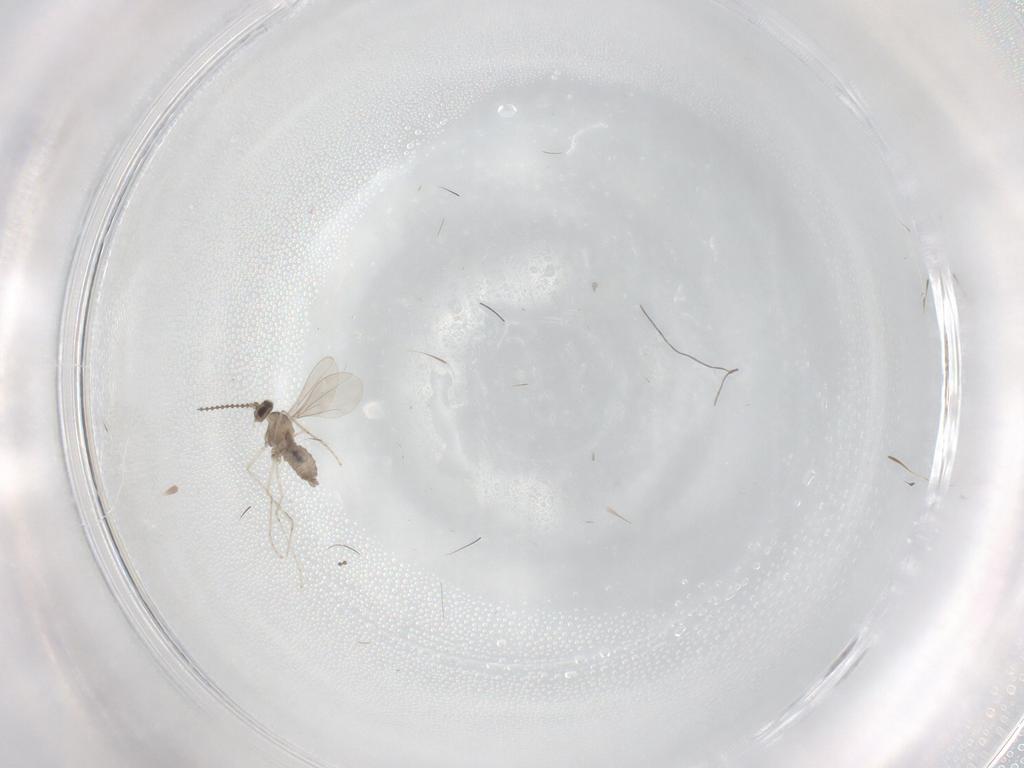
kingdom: Animalia
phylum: Arthropoda
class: Insecta
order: Diptera
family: Cecidomyiidae
